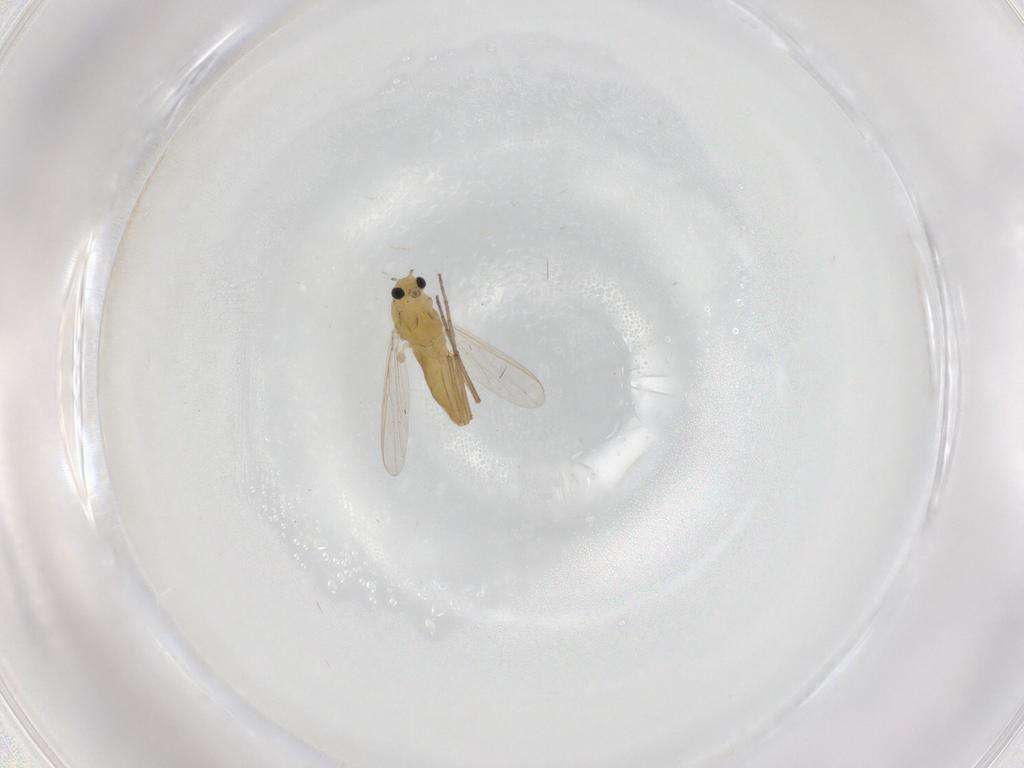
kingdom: Animalia
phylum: Arthropoda
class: Insecta
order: Diptera
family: Chironomidae
